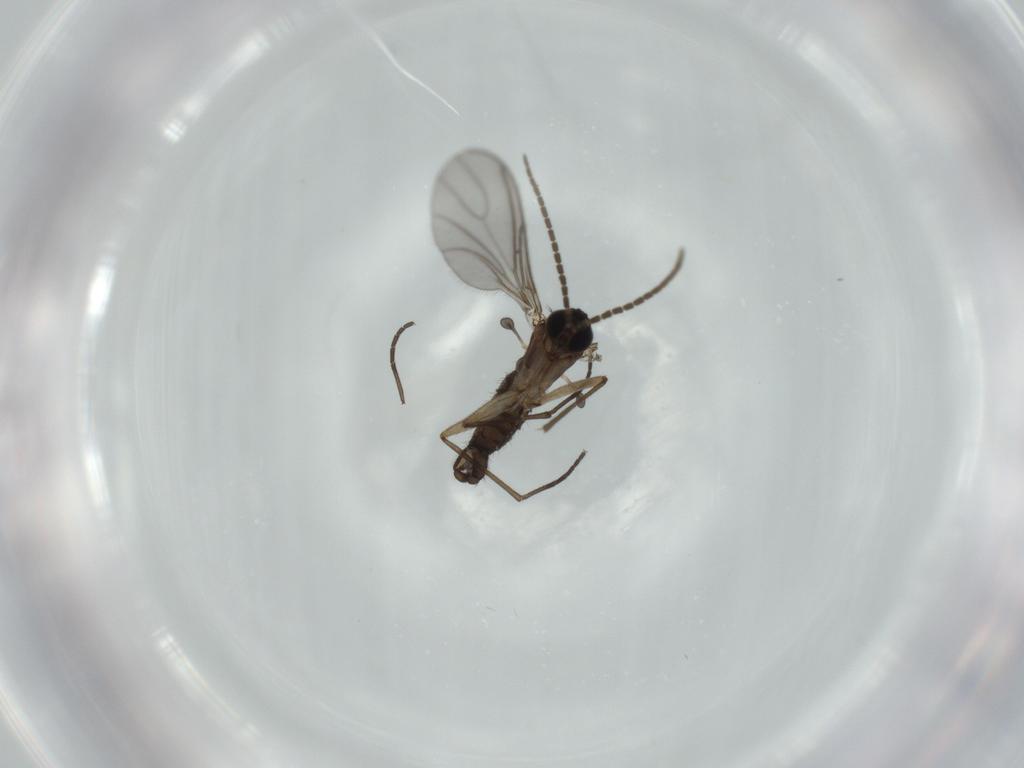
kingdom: Animalia
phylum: Arthropoda
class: Insecta
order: Diptera
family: Sciaridae
